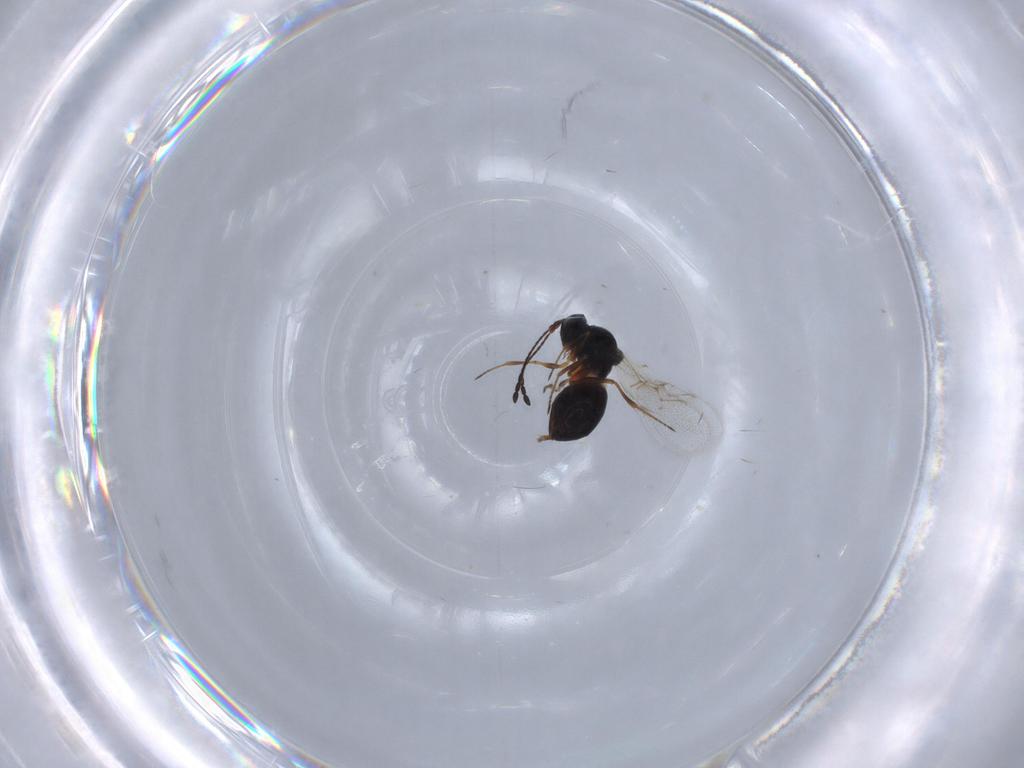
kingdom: Animalia
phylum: Arthropoda
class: Insecta
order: Hymenoptera
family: Figitidae
